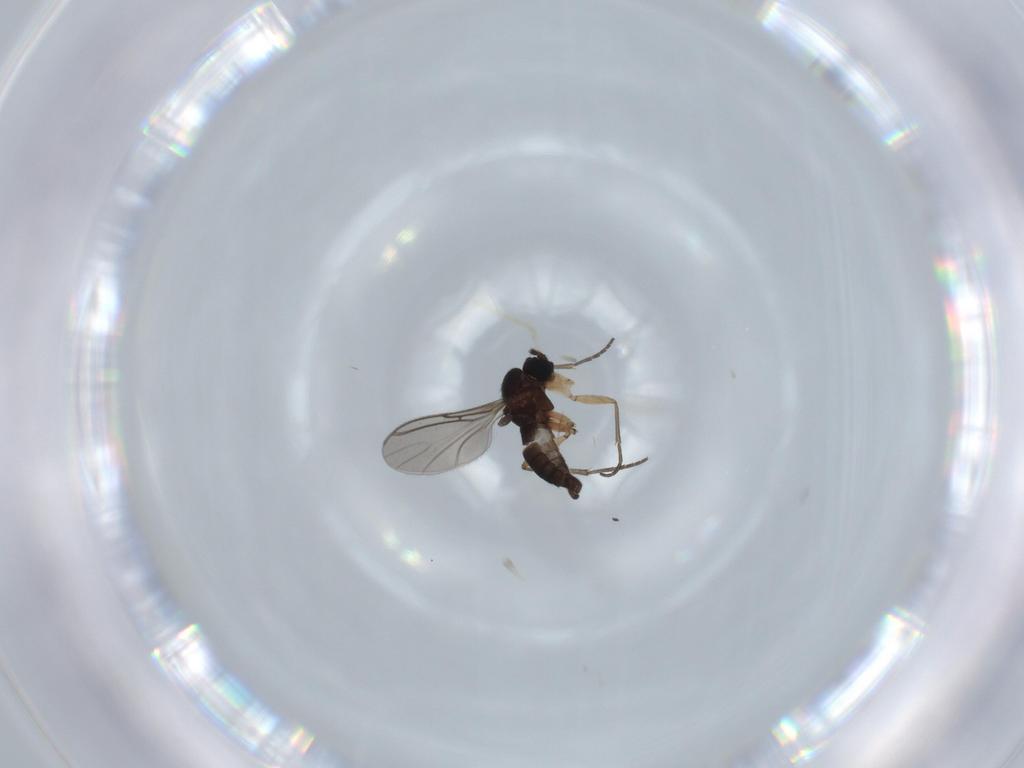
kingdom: Animalia
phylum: Arthropoda
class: Insecta
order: Diptera
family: Sciaridae
